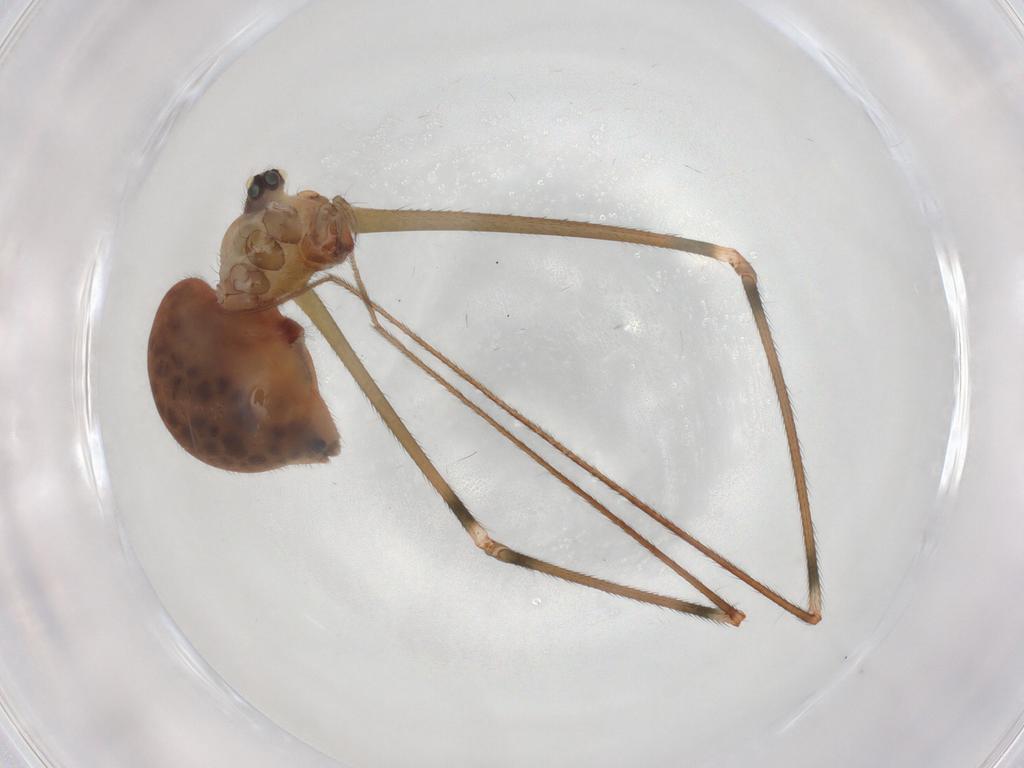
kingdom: Animalia
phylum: Arthropoda
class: Arachnida
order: Araneae
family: Pholcidae
